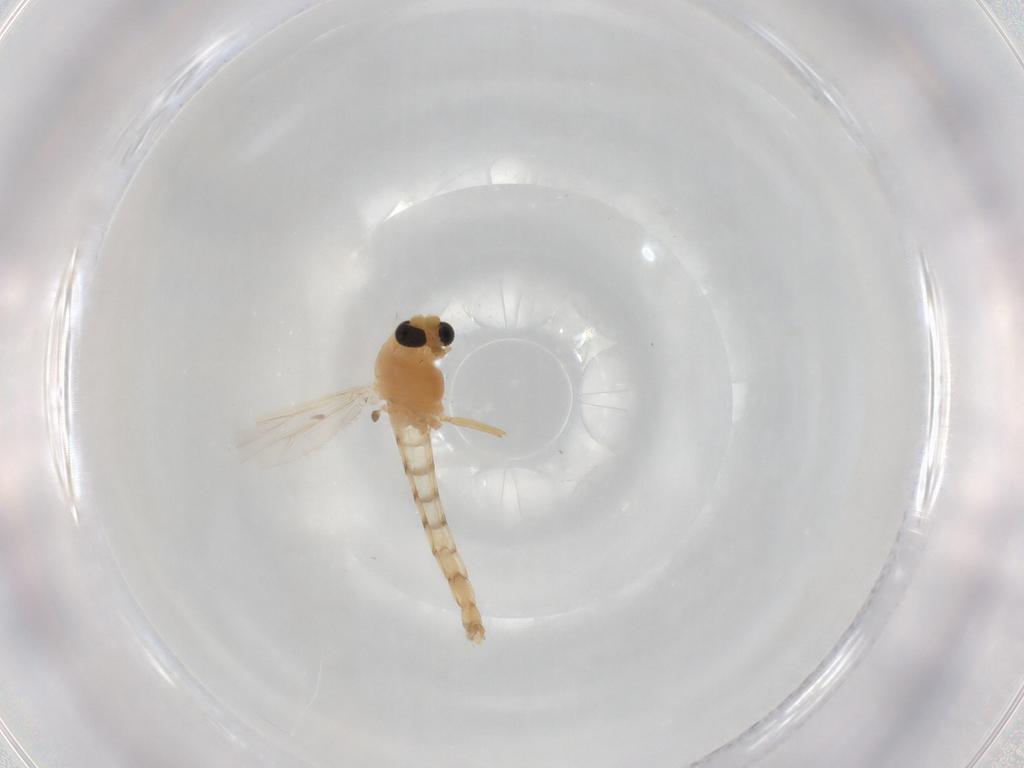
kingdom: Animalia
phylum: Arthropoda
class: Insecta
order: Diptera
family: Chironomidae
